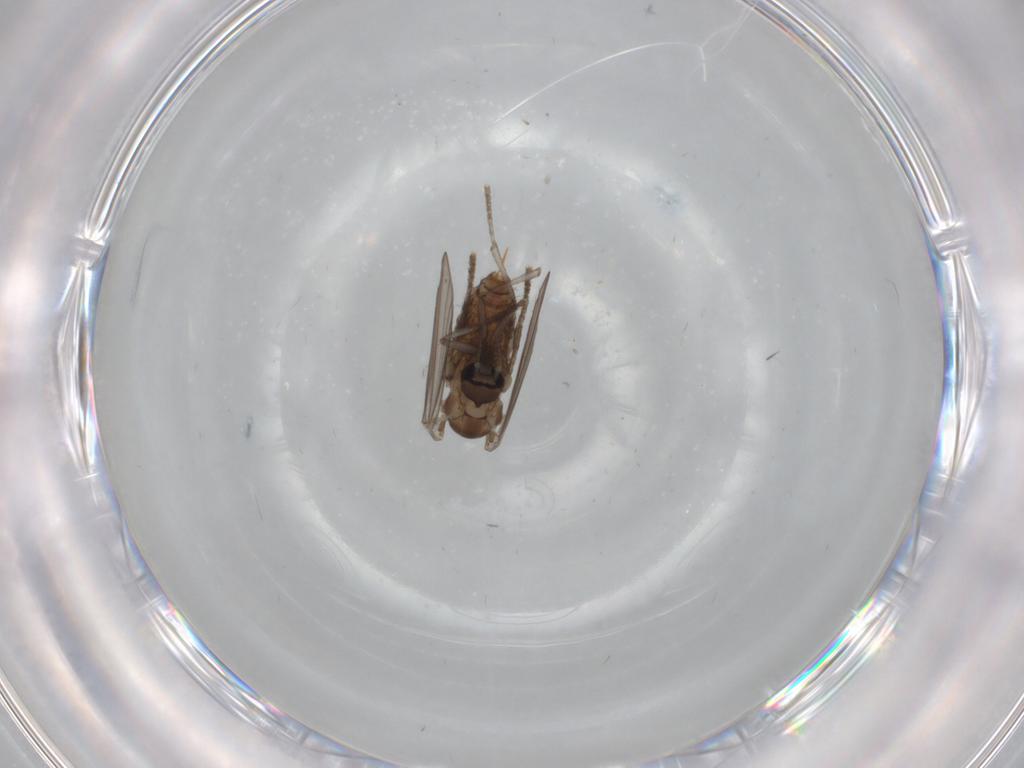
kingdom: Animalia
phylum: Arthropoda
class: Insecta
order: Diptera
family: Psychodidae
